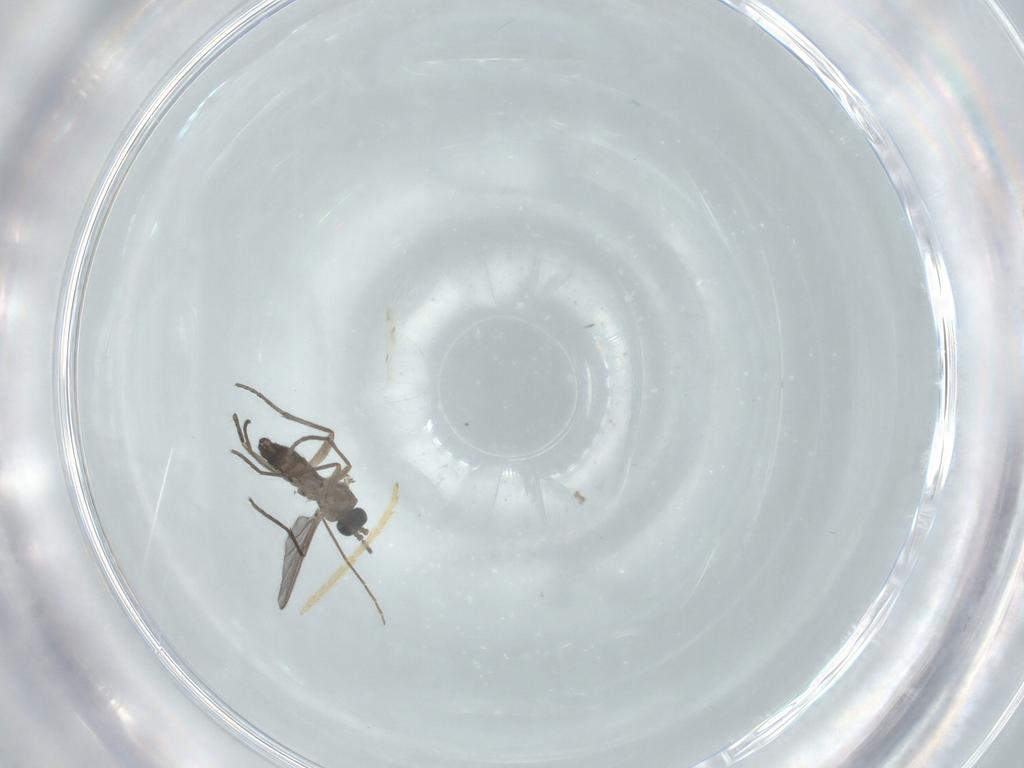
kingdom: Animalia
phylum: Arthropoda
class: Insecta
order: Diptera
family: Sciaridae
